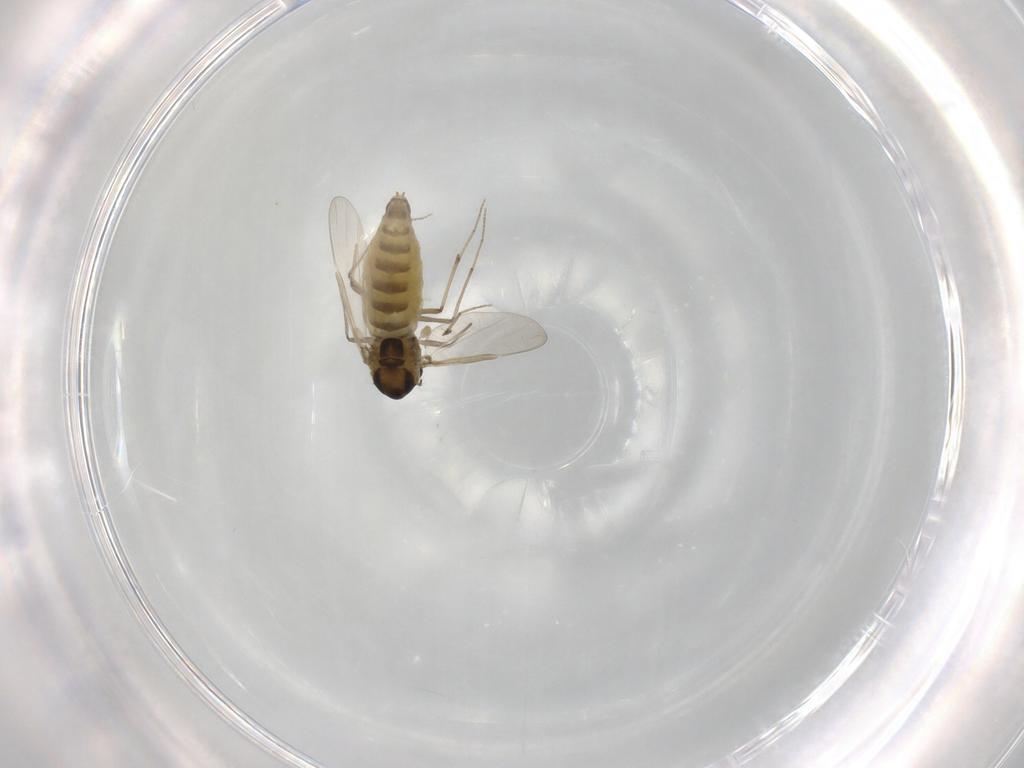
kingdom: Animalia
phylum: Arthropoda
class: Insecta
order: Diptera
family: Chironomidae
